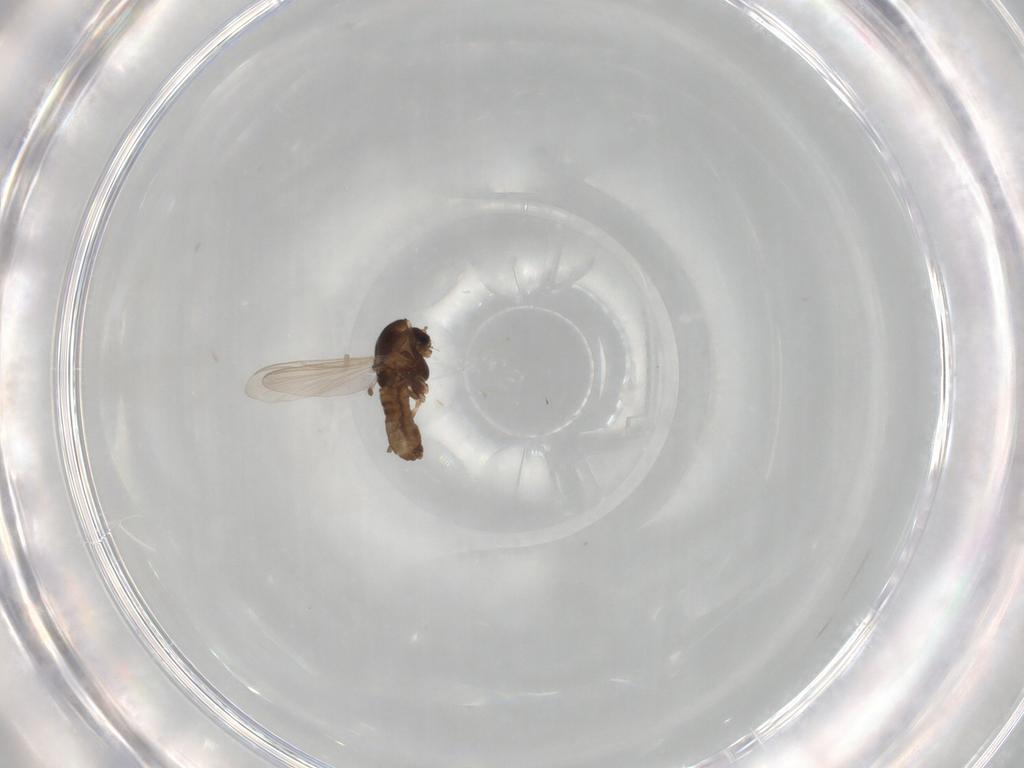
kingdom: Animalia
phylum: Arthropoda
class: Insecta
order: Diptera
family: Chironomidae
